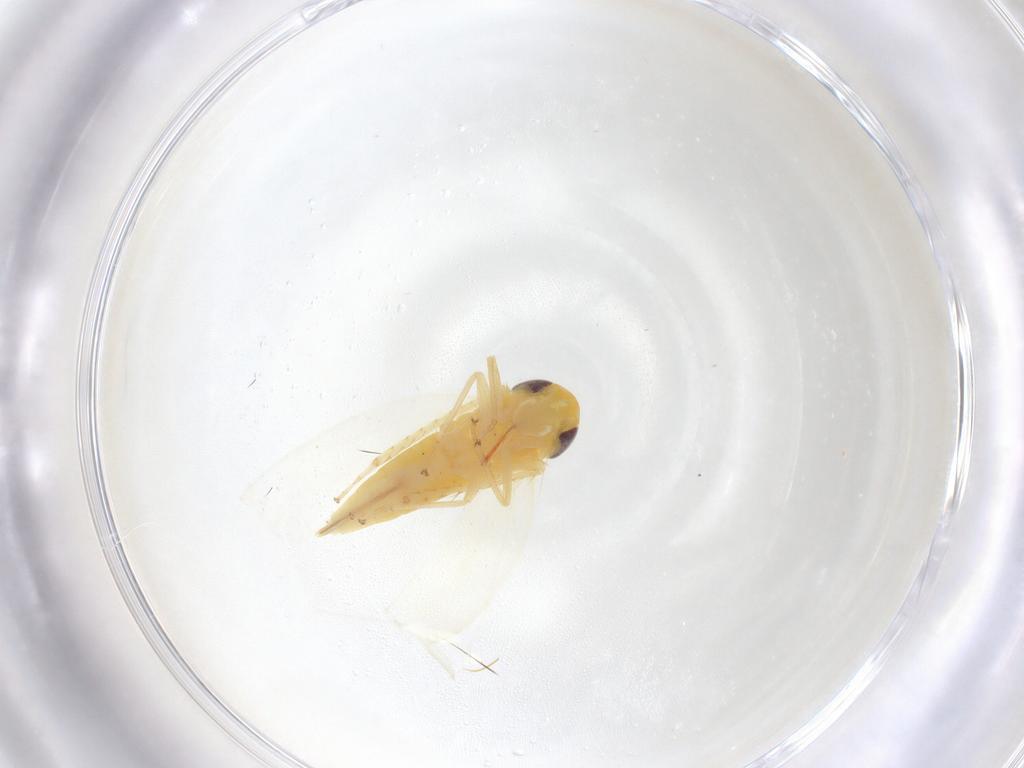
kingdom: Animalia
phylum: Arthropoda
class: Insecta
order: Hemiptera
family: Cicadellidae
